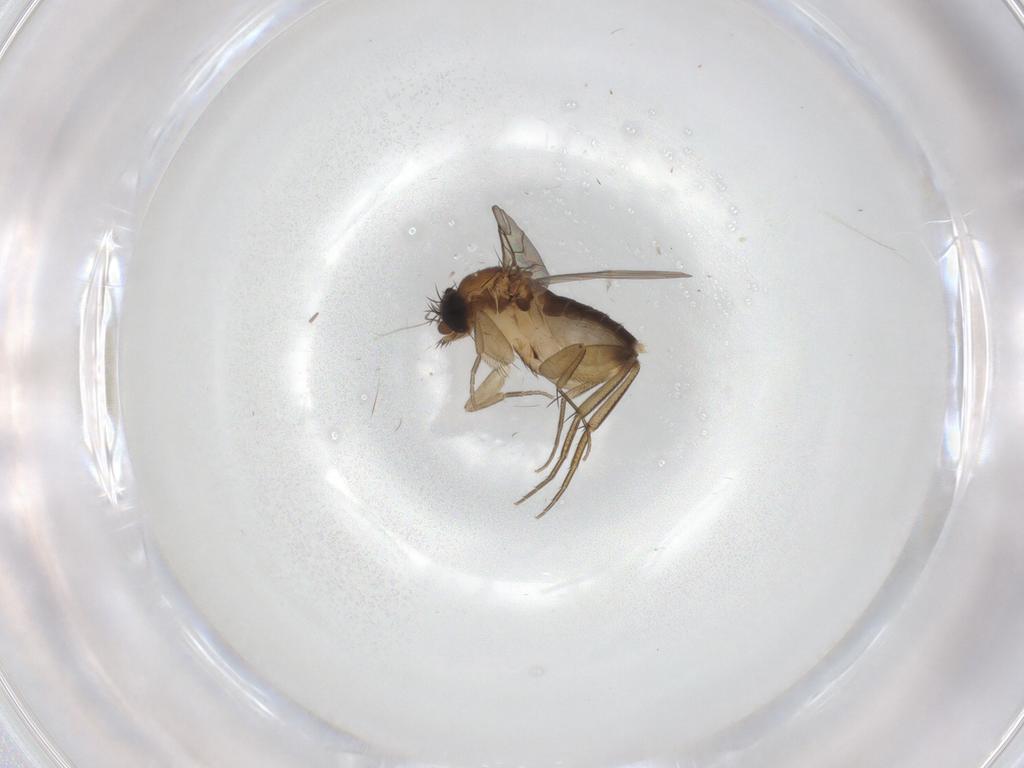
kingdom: Animalia
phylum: Arthropoda
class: Insecta
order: Diptera
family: Phoridae
